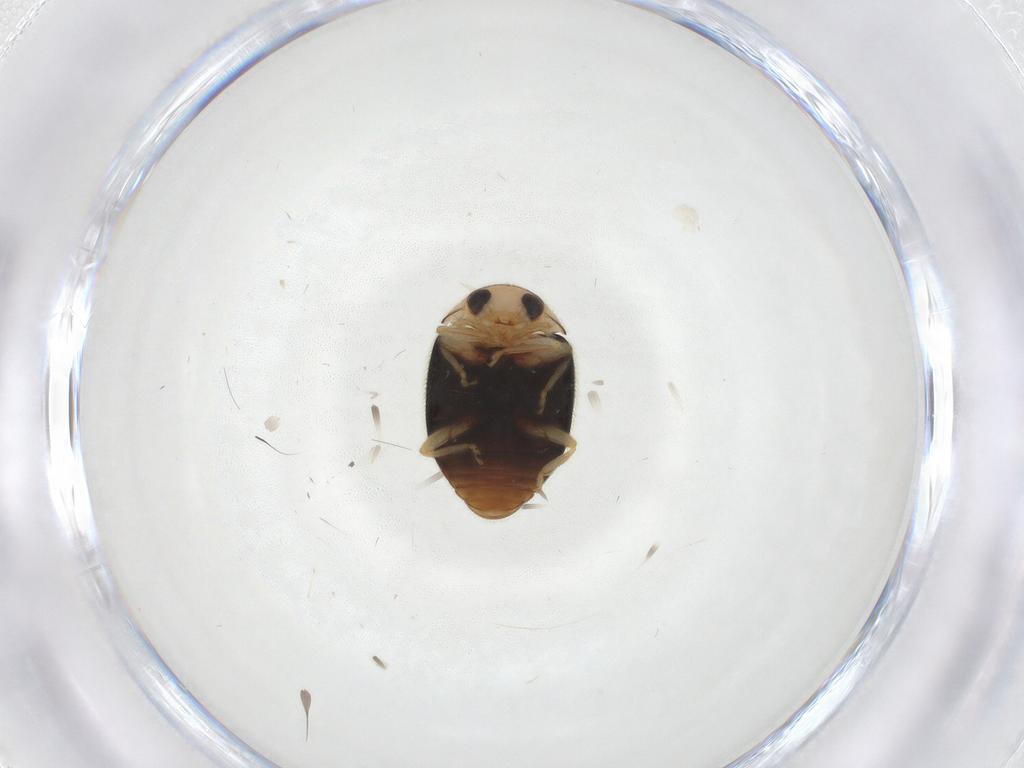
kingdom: Animalia
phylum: Arthropoda
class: Insecta
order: Coleoptera
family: Coccinellidae
